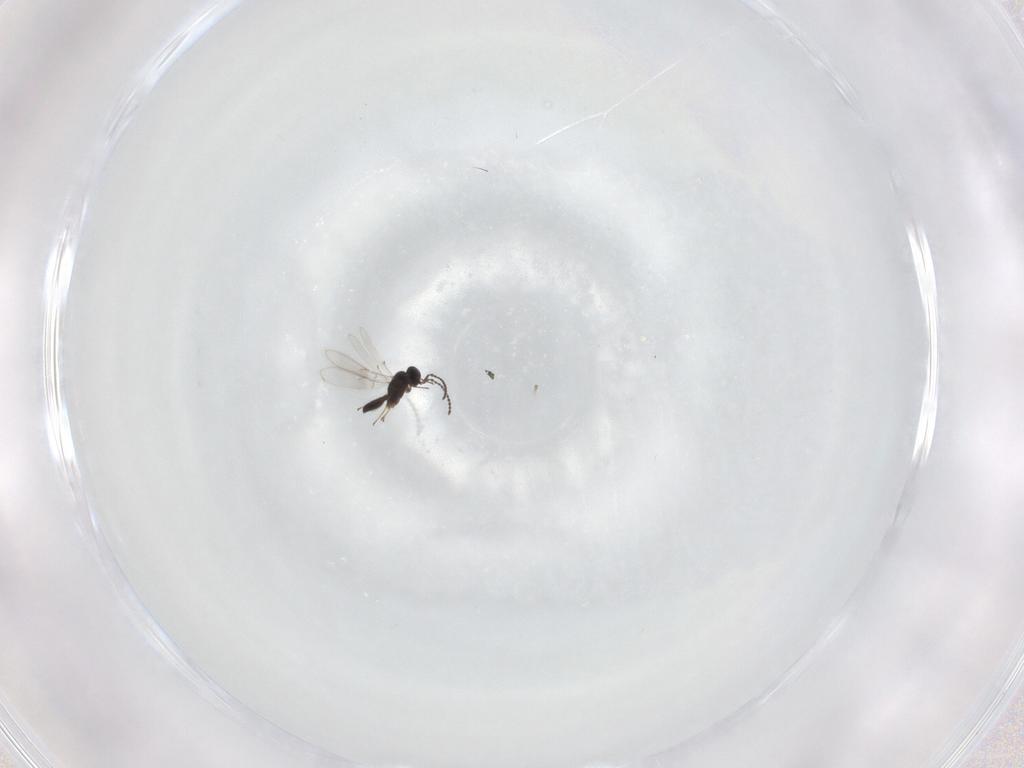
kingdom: Animalia
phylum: Arthropoda
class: Insecta
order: Hymenoptera
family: Scelionidae
